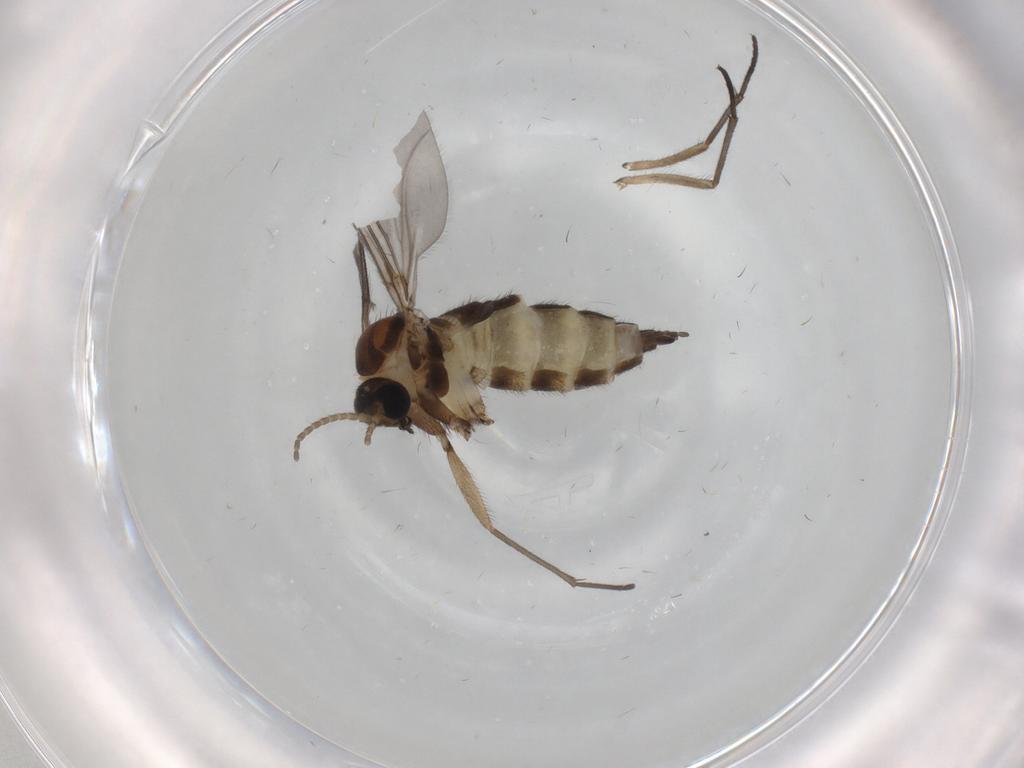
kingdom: Animalia
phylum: Arthropoda
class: Insecta
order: Diptera
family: Sciaridae
